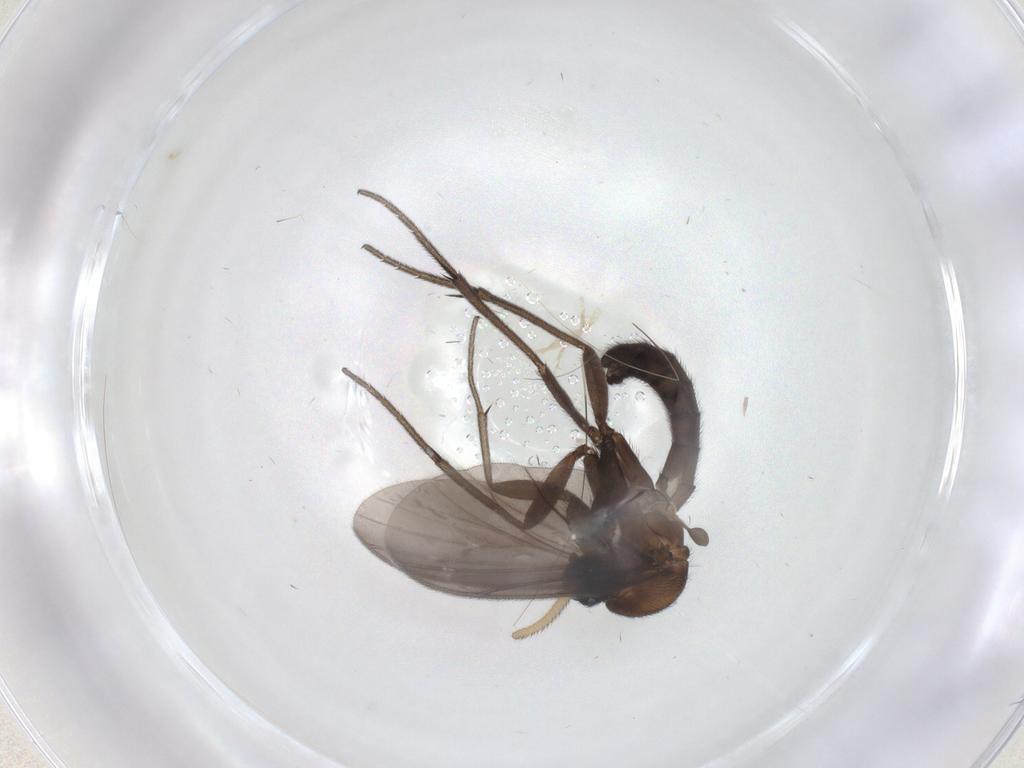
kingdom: Animalia
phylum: Arthropoda
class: Insecta
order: Diptera
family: Mycetophilidae
